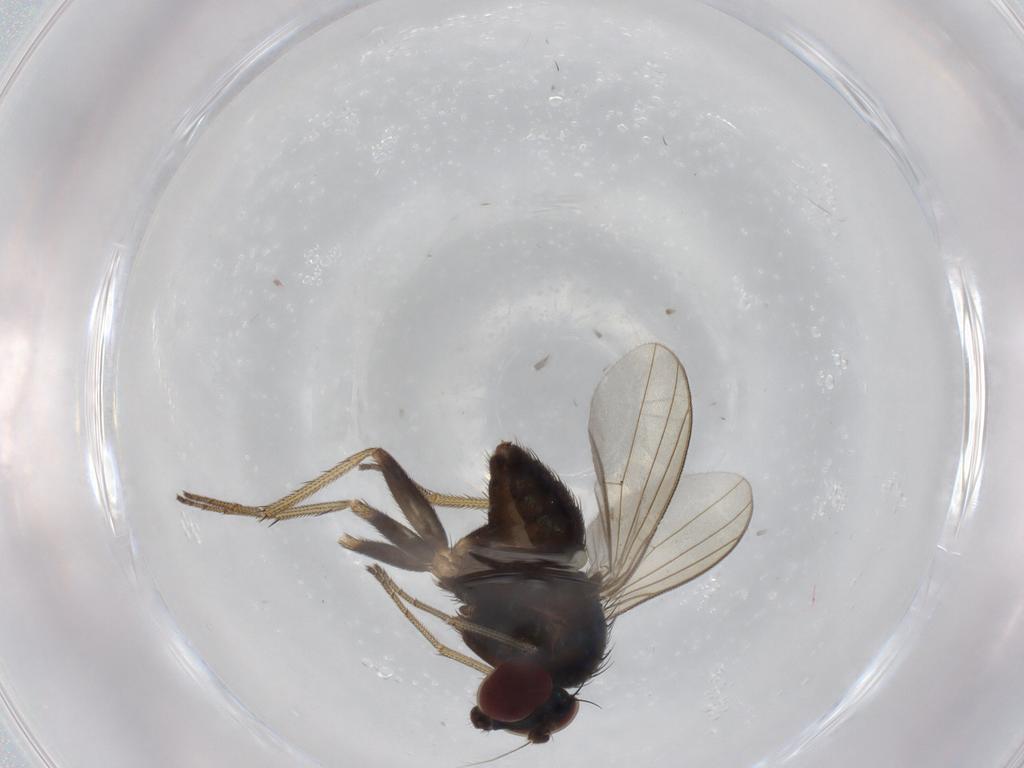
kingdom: Animalia
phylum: Arthropoda
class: Insecta
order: Diptera
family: Dolichopodidae
